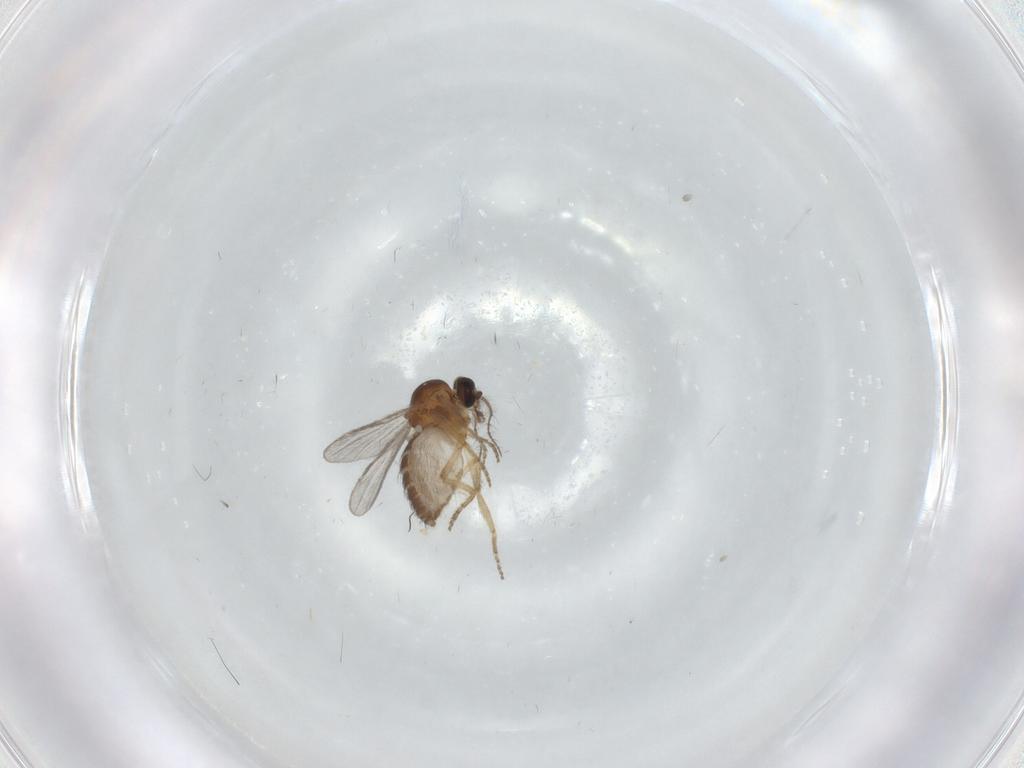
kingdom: Animalia
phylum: Arthropoda
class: Insecta
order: Diptera
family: Ceratopogonidae
